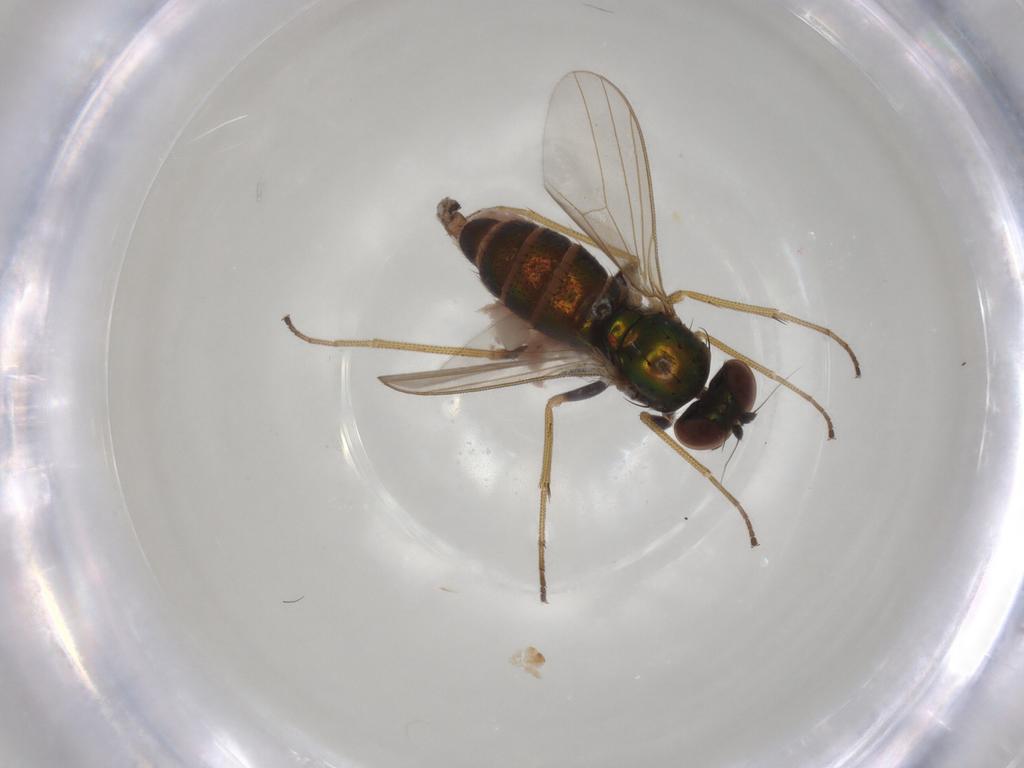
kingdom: Animalia
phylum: Arthropoda
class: Insecta
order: Diptera
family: Dolichopodidae
